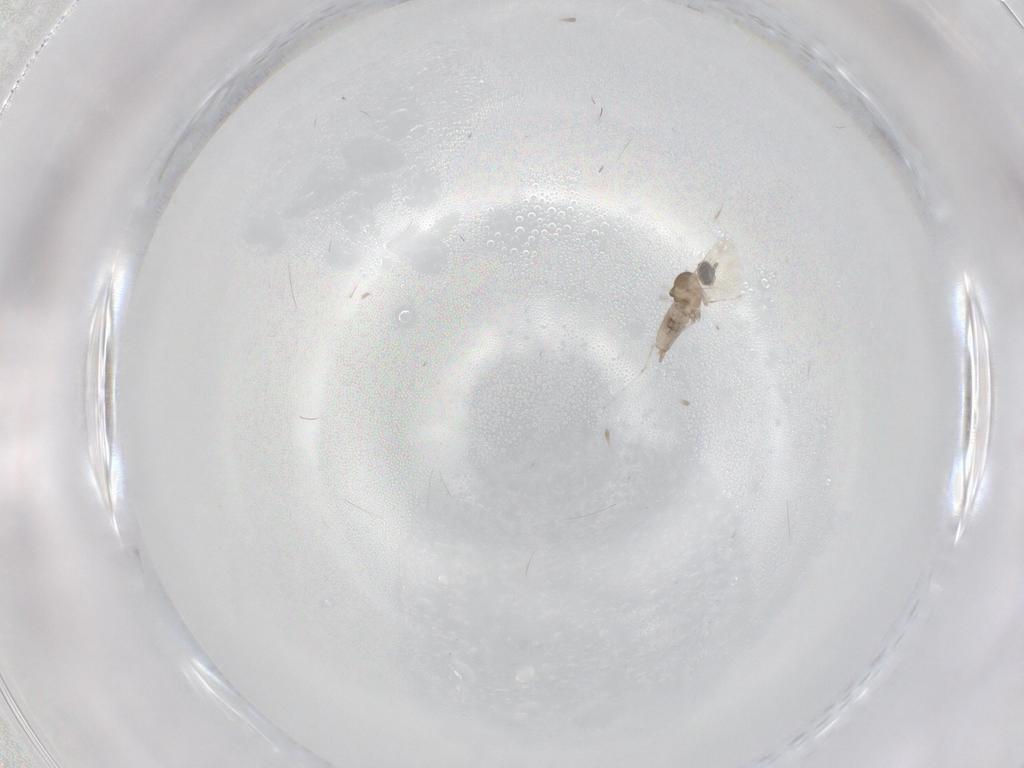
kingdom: Animalia
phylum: Arthropoda
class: Insecta
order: Diptera
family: Cecidomyiidae
